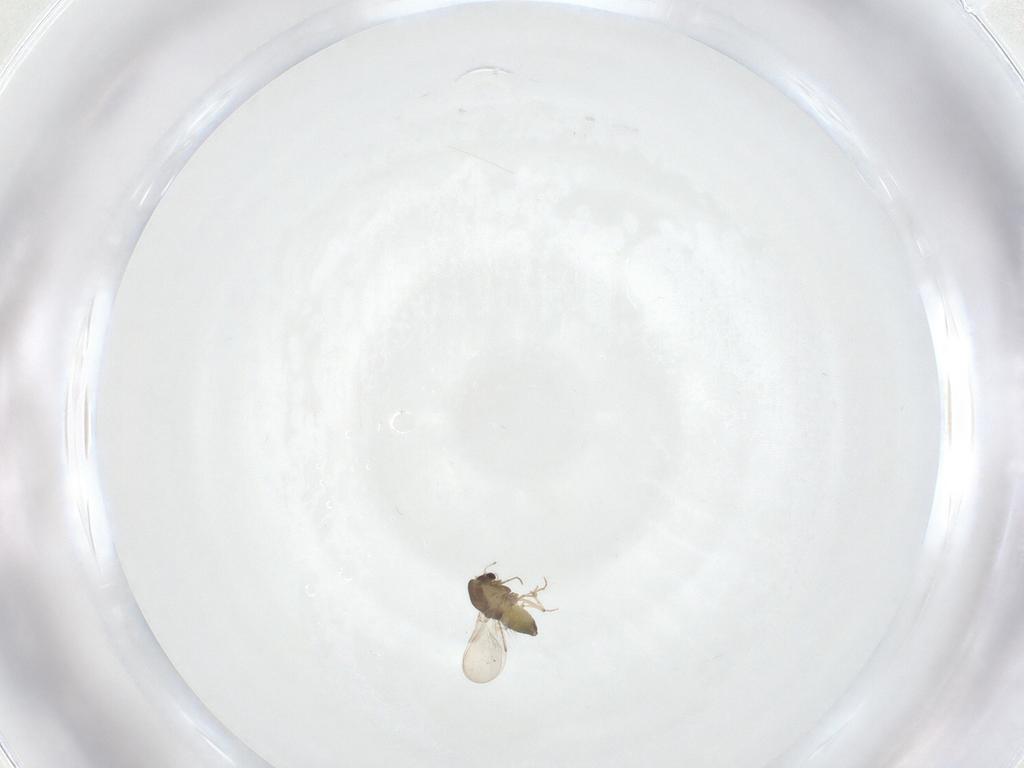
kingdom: Animalia
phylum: Arthropoda
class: Insecta
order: Diptera
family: Chironomidae
